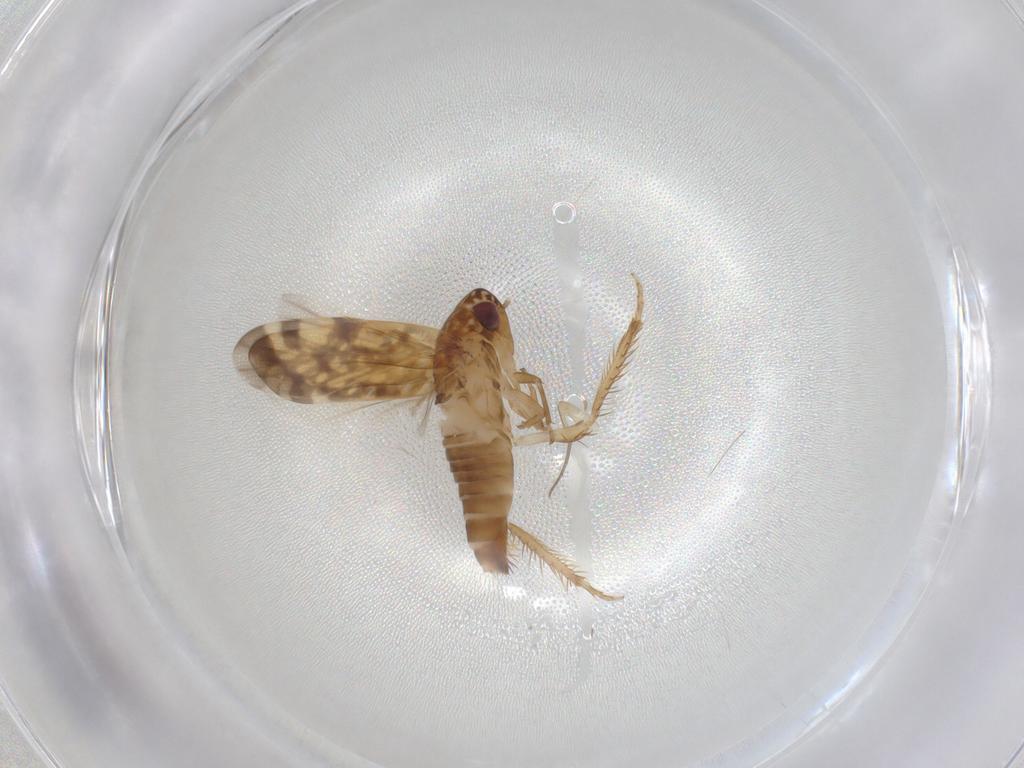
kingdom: Animalia
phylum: Arthropoda
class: Insecta
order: Hemiptera
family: Cicadellidae
